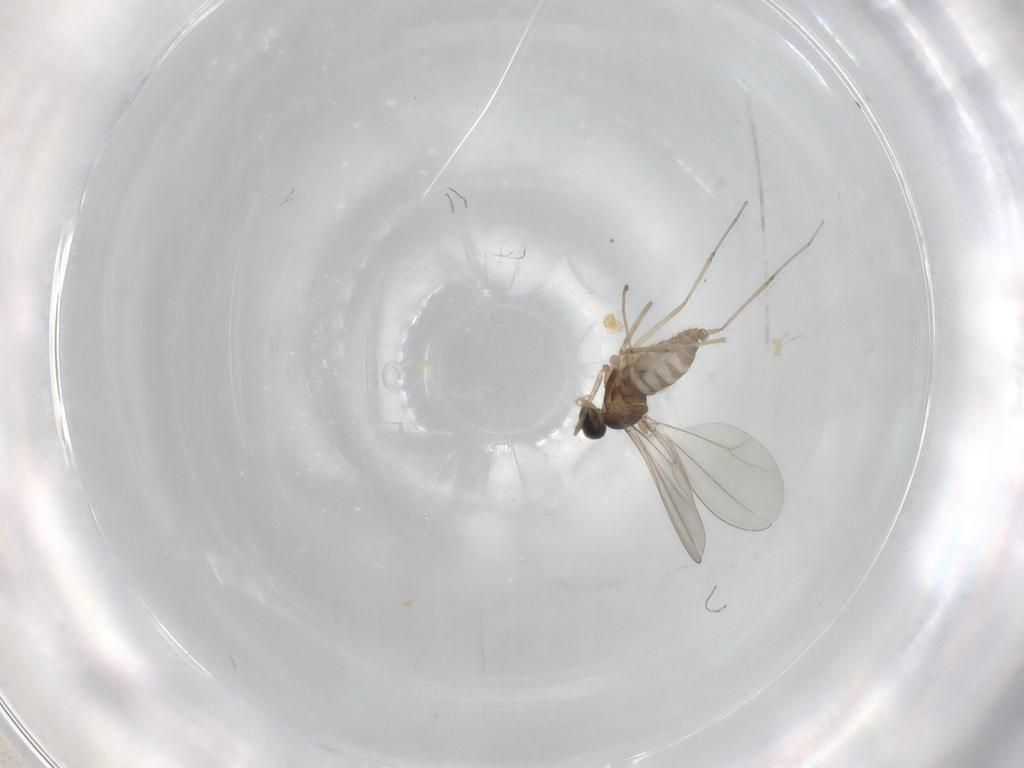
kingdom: Animalia
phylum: Arthropoda
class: Insecta
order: Diptera
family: Cecidomyiidae
